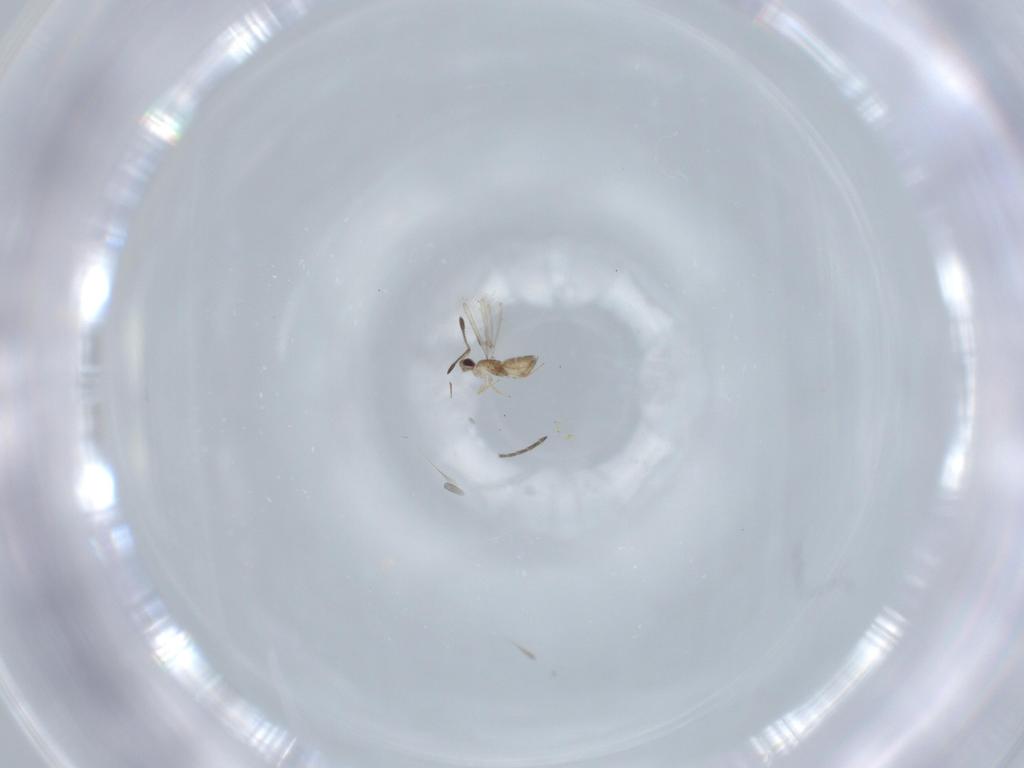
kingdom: Animalia
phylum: Arthropoda
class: Insecta
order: Hymenoptera
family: Mymaridae
